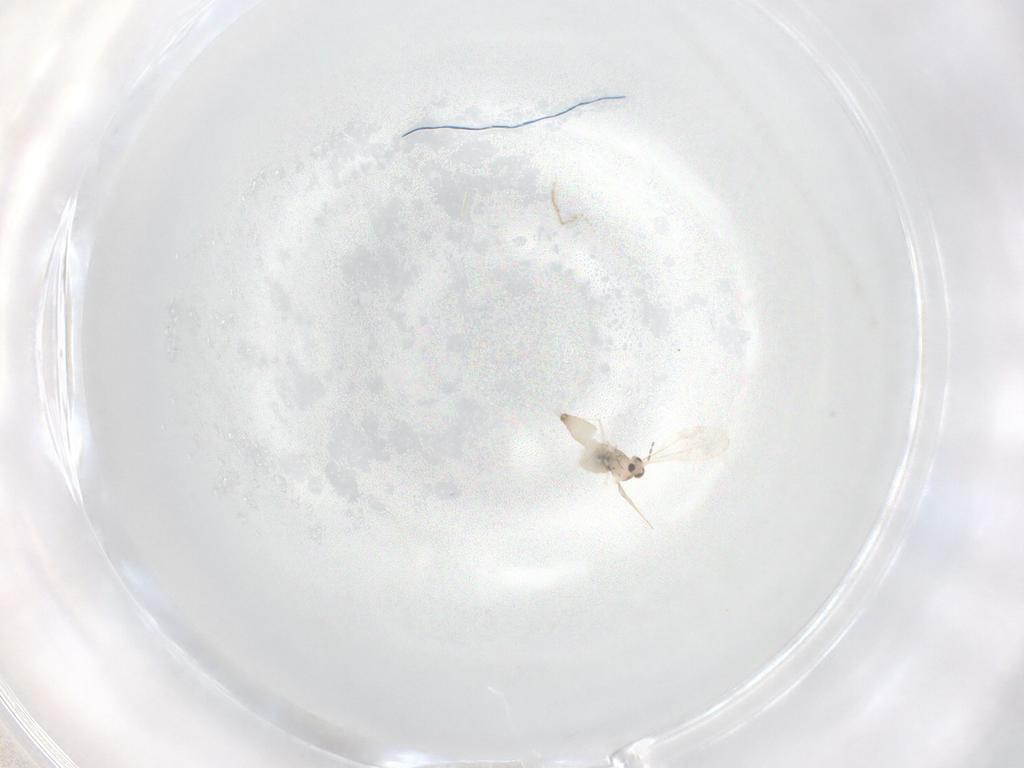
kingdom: Animalia
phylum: Arthropoda
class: Insecta
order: Diptera
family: Cecidomyiidae
